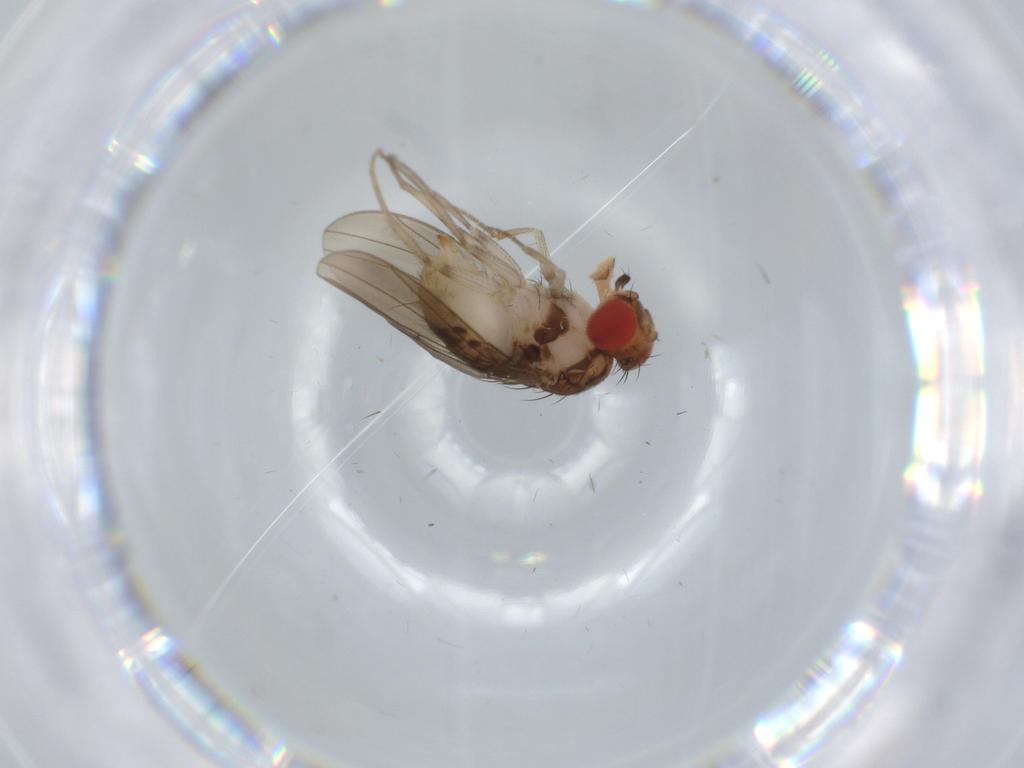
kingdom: Animalia
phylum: Arthropoda
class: Insecta
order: Diptera
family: Drosophilidae
